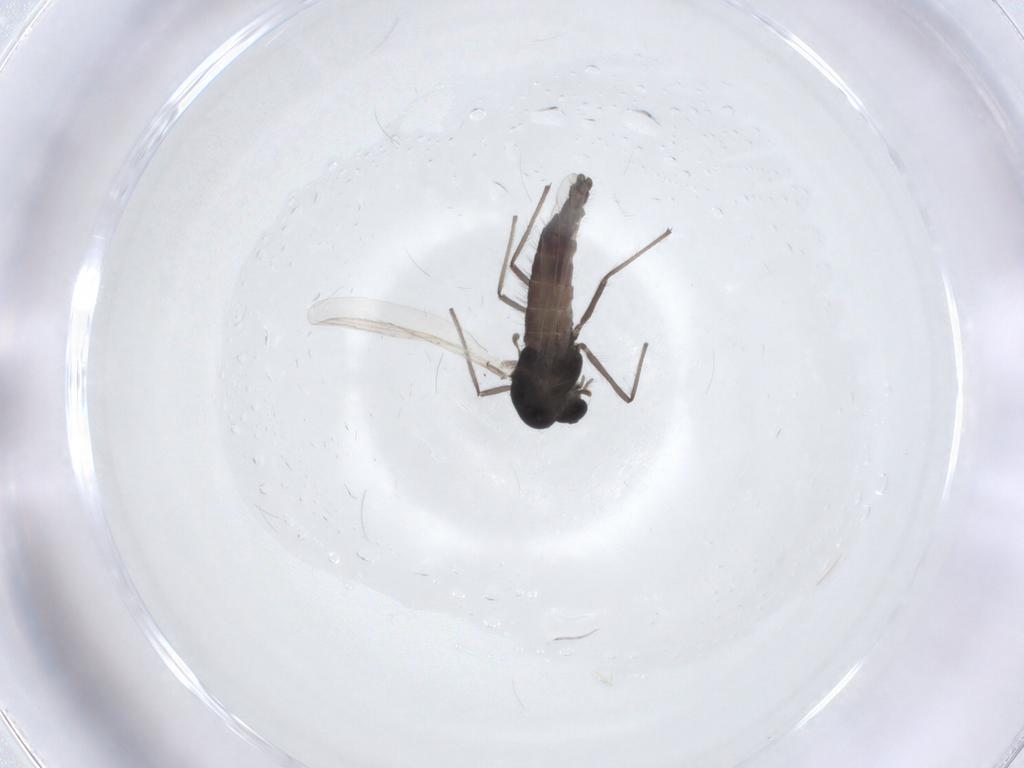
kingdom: Animalia
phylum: Arthropoda
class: Insecta
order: Diptera
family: Chironomidae
